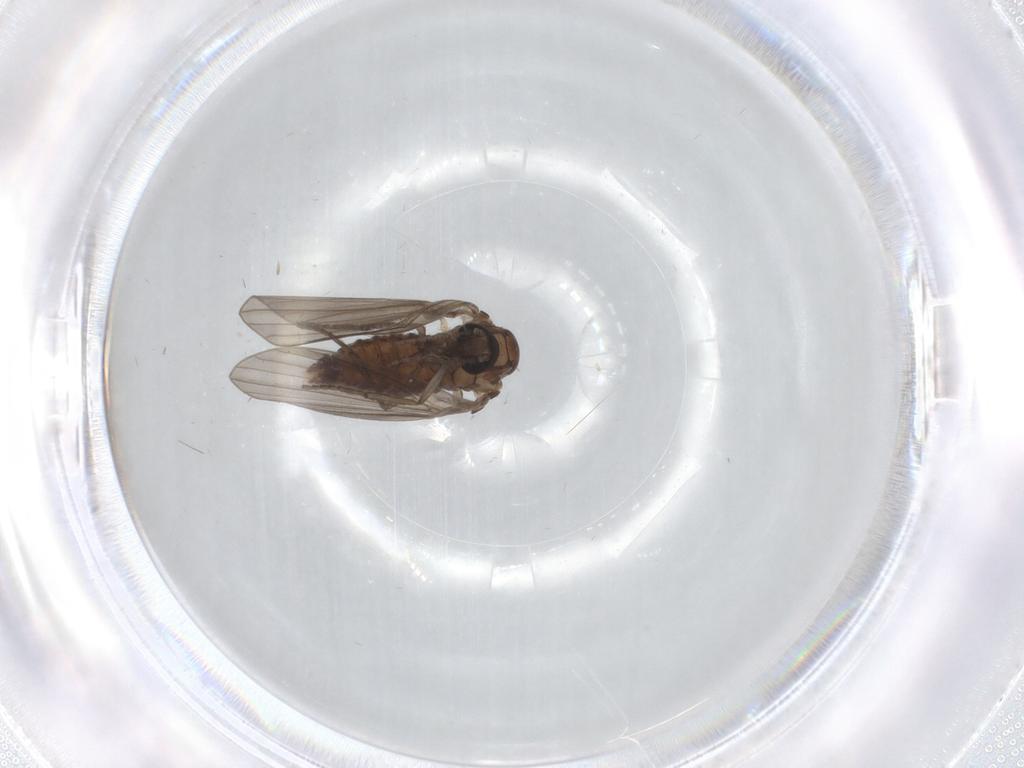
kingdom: Animalia
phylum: Arthropoda
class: Insecta
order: Diptera
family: Psychodidae
